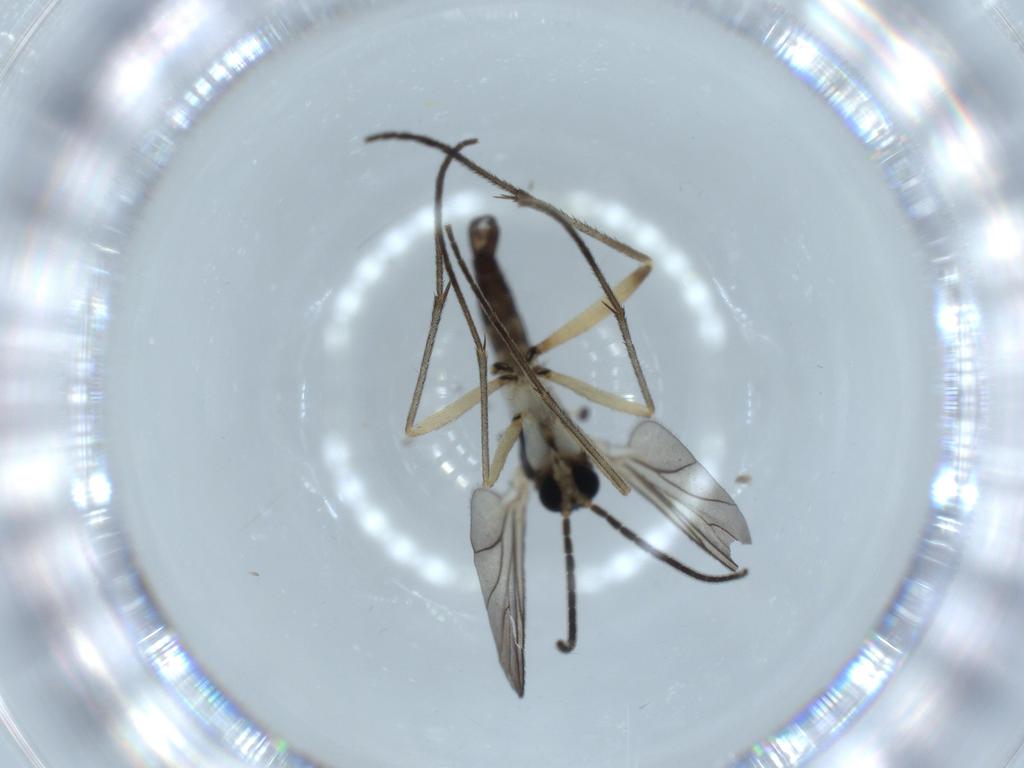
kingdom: Animalia
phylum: Arthropoda
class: Insecta
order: Diptera
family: Sciaridae
